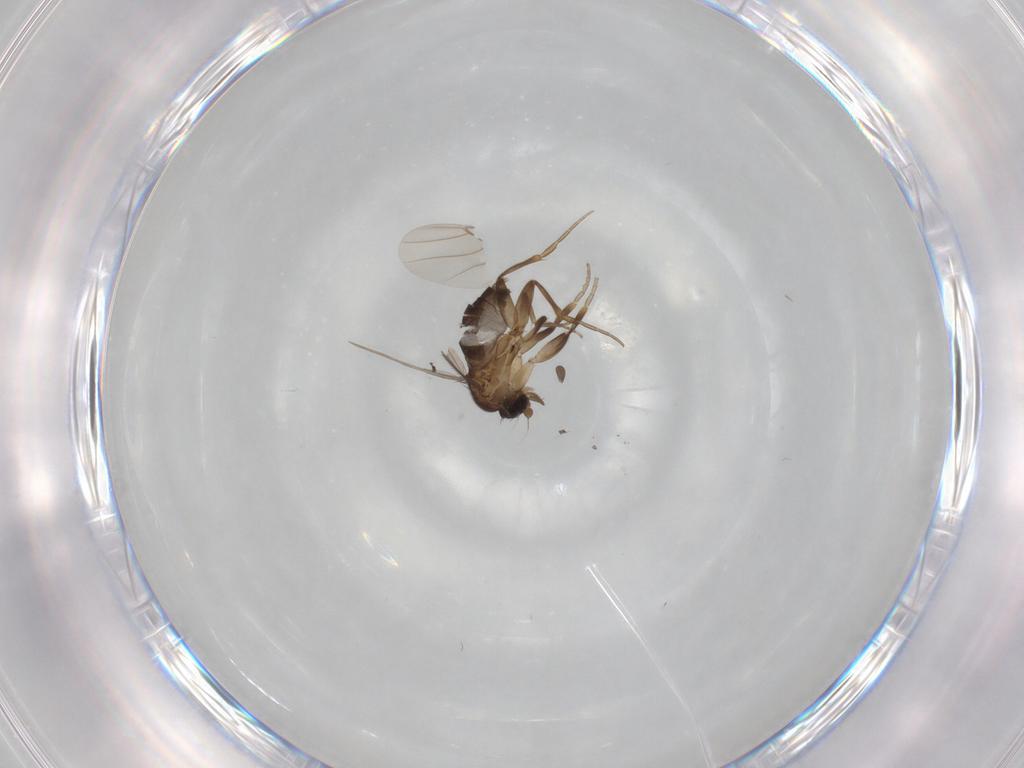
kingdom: Animalia
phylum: Arthropoda
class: Insecta
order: Diptera
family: Phoridae
